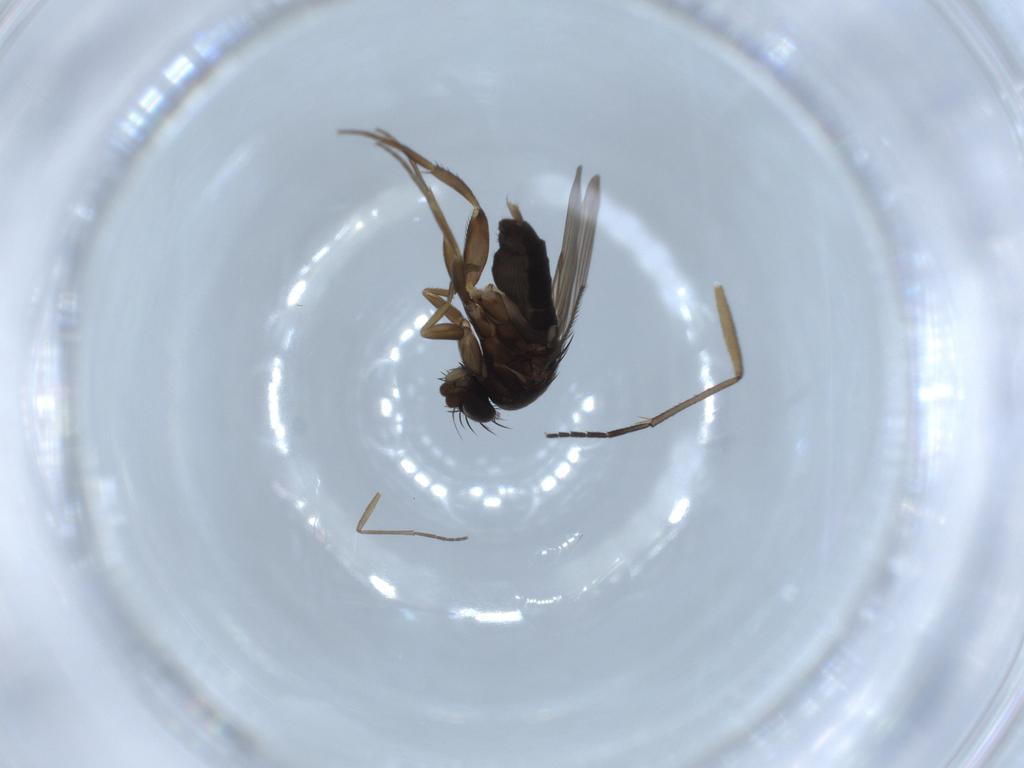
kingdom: Animalia
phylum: Arthropoda
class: Insecta
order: Diptera
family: Phoridae
